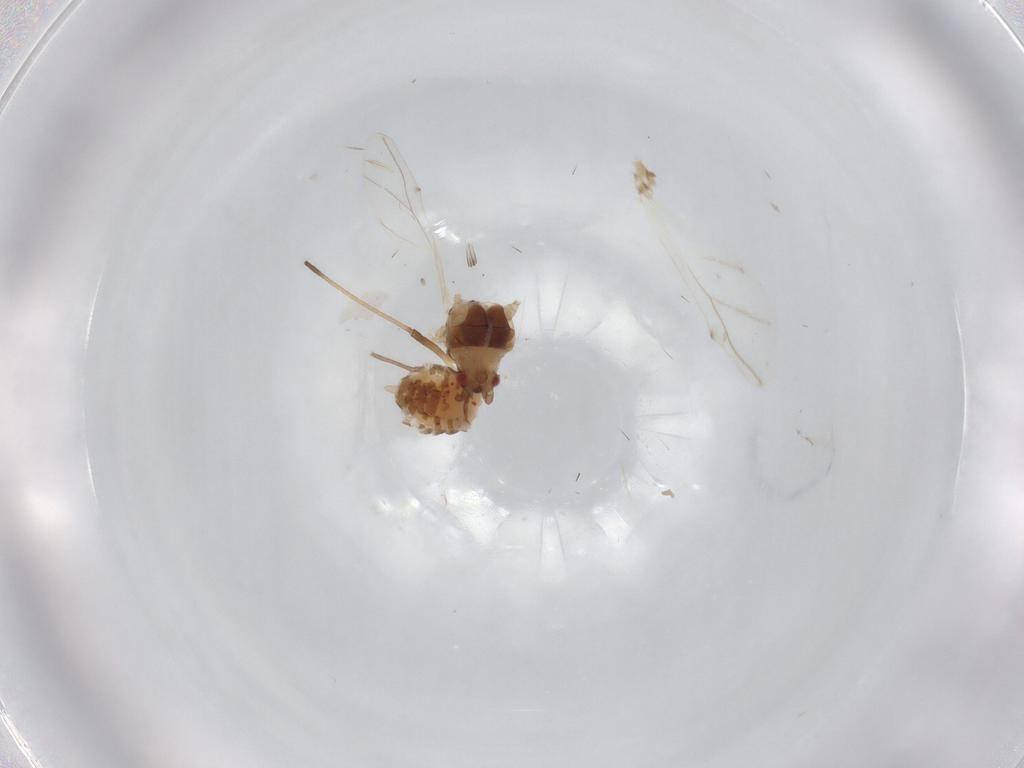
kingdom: Animalia
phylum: Arthropoda
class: Insecta
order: Hemiptera
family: Aphididae
